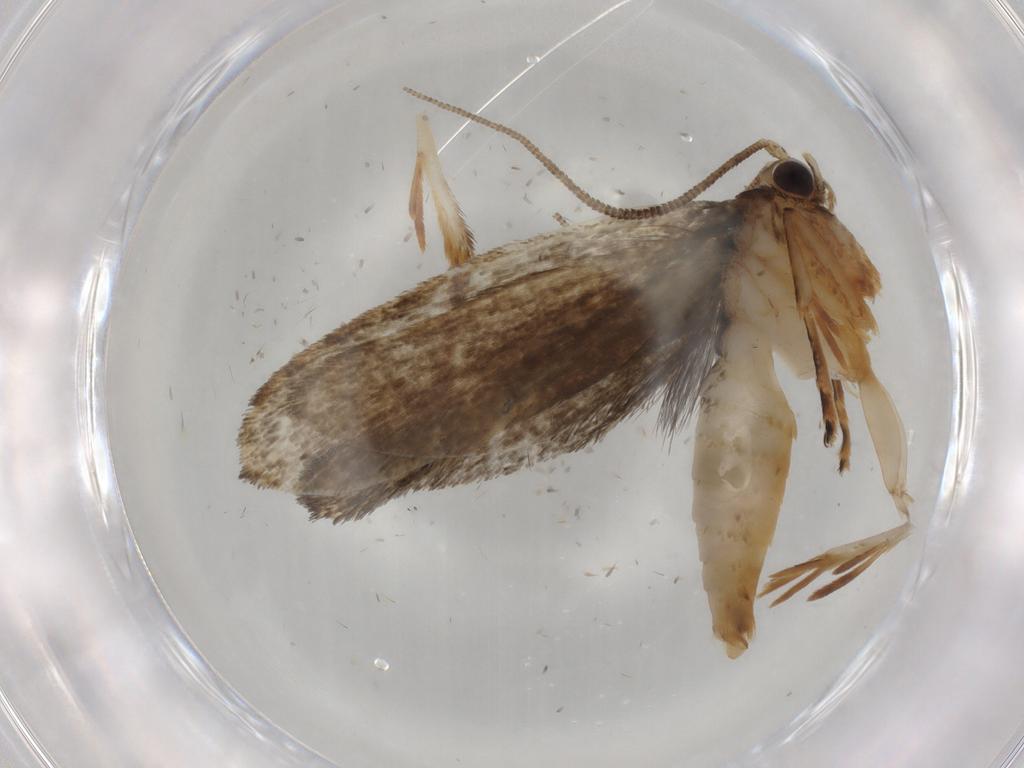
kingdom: Animalia
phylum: Arthropoda
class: Insecta
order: Lepidoptera
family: Tineidae
